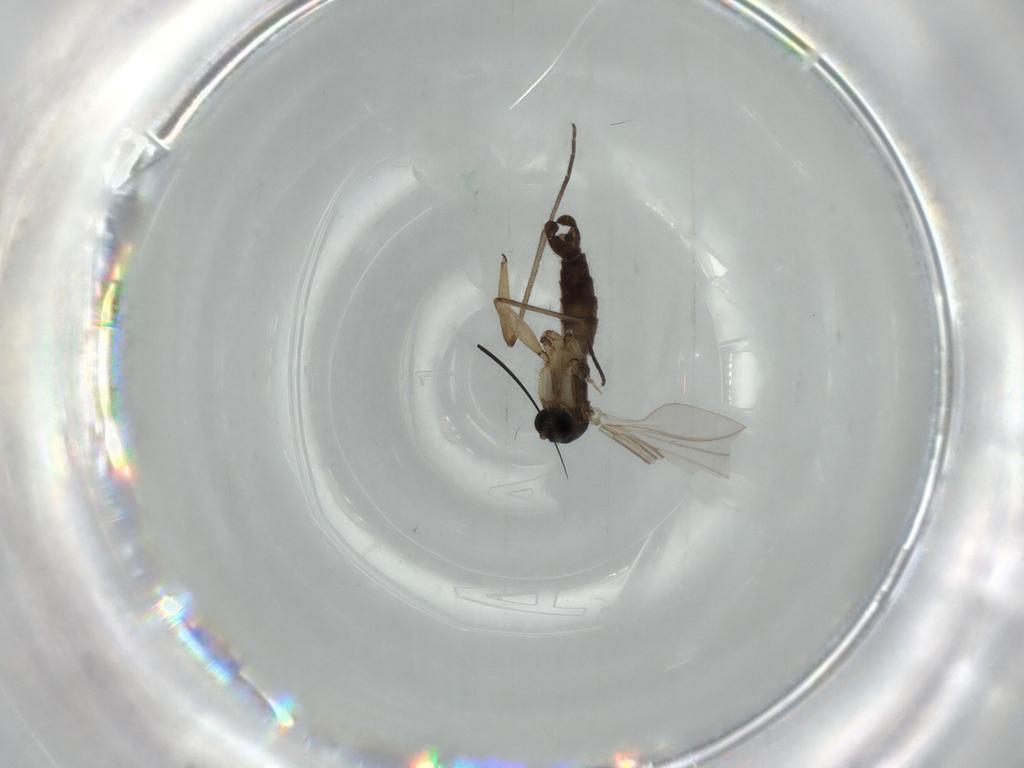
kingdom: Animalia
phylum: Arthropoda
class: Insecta
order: Diptera
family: Sciaridae
